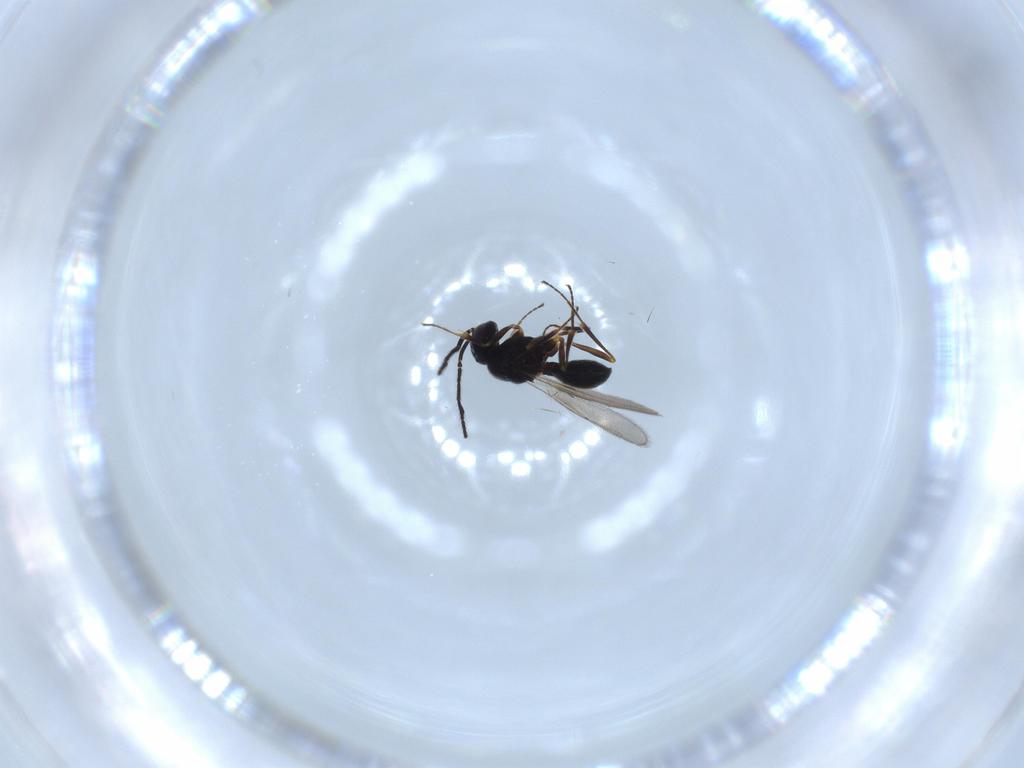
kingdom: Animalia
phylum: Arthropoda
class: Insecta
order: Hymenoptera
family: Scelionidae
